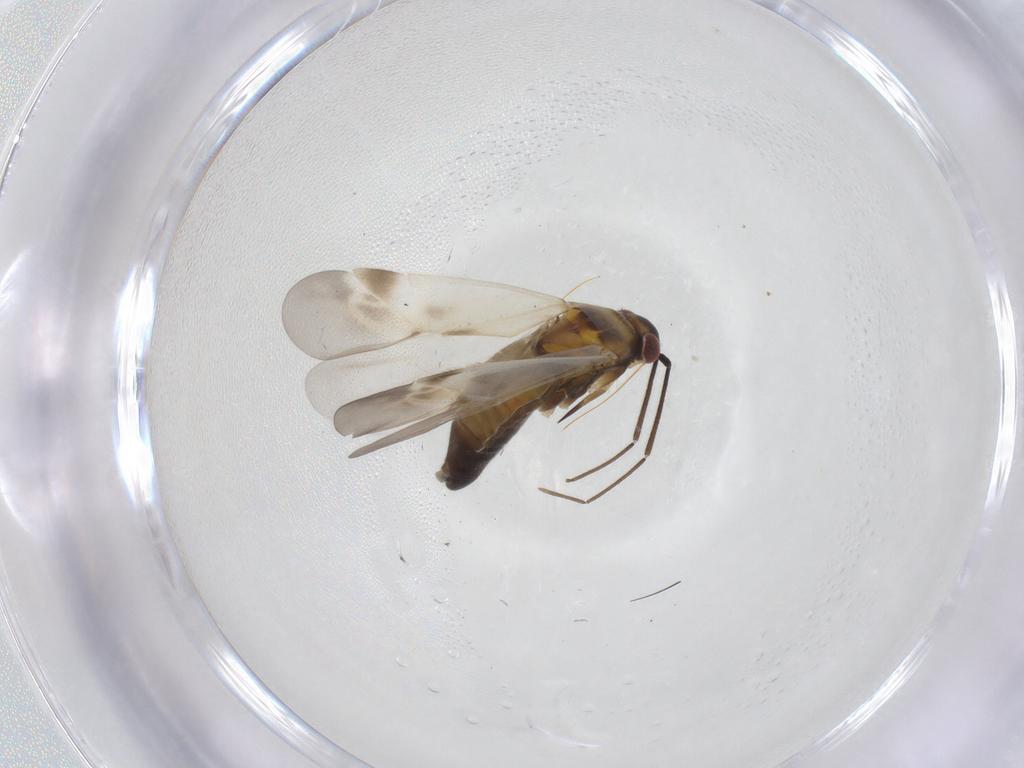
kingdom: Animalia
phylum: Arthropoda
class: Insecta
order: Hemiptera
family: Miridae
